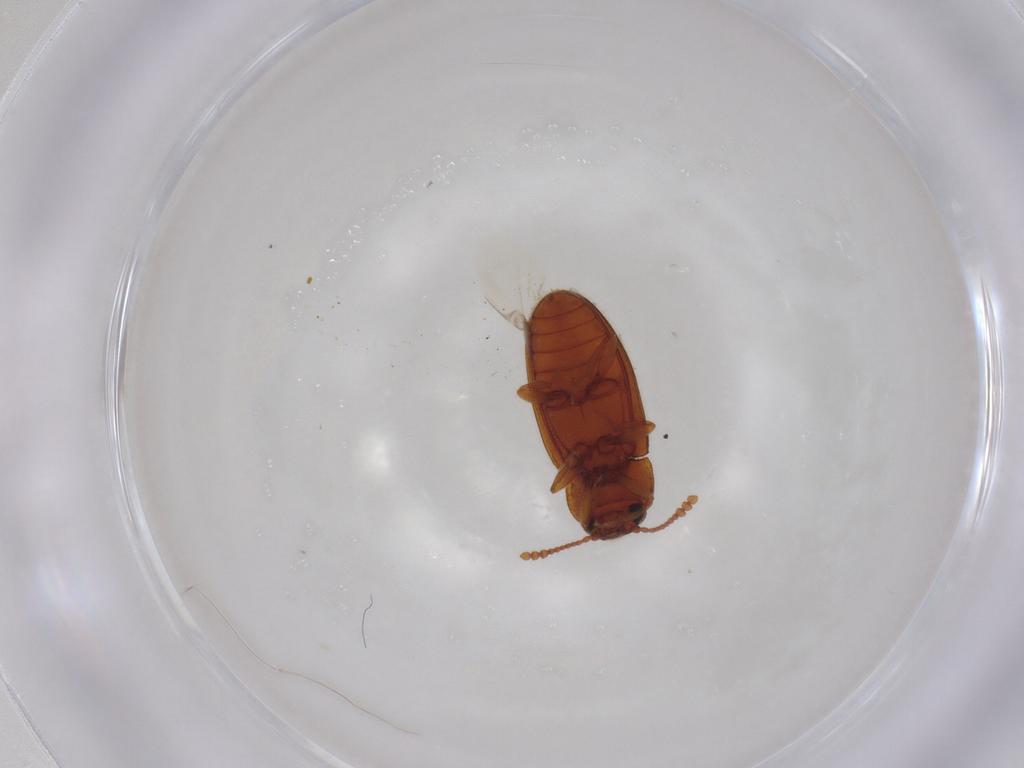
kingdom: Animalia
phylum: Arthropoda
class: Insecta
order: Coleoptera
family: Erotylidae
